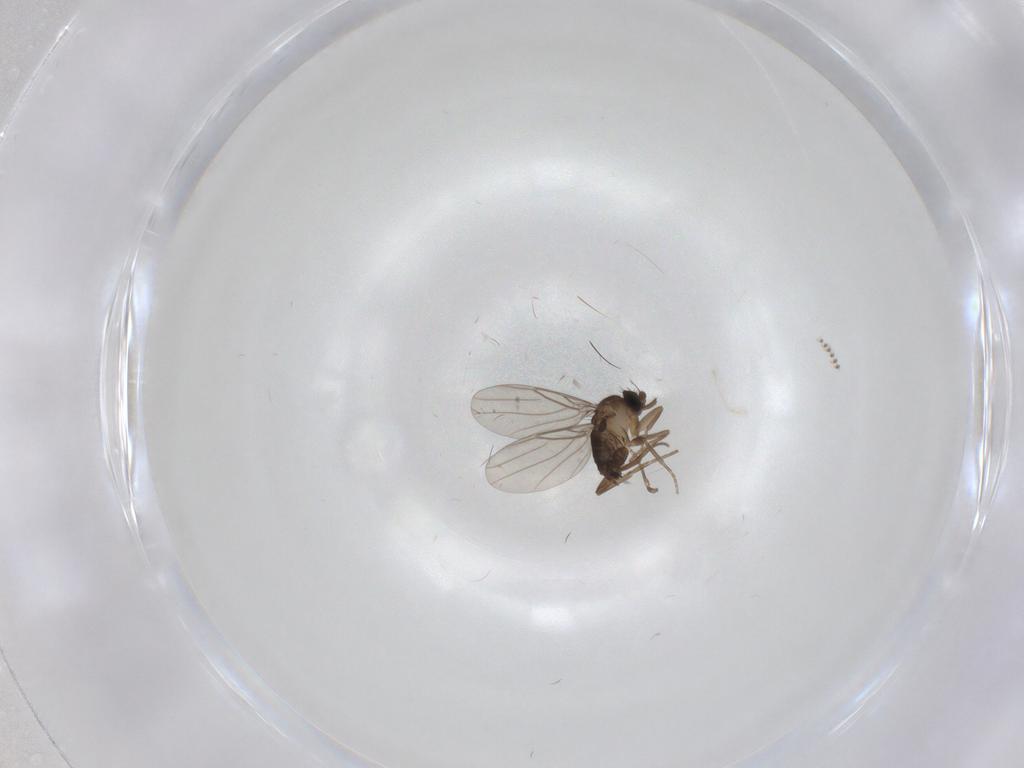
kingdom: Animalia
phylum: Arthropoda
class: Insecta
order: Diptera
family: Phoridae
